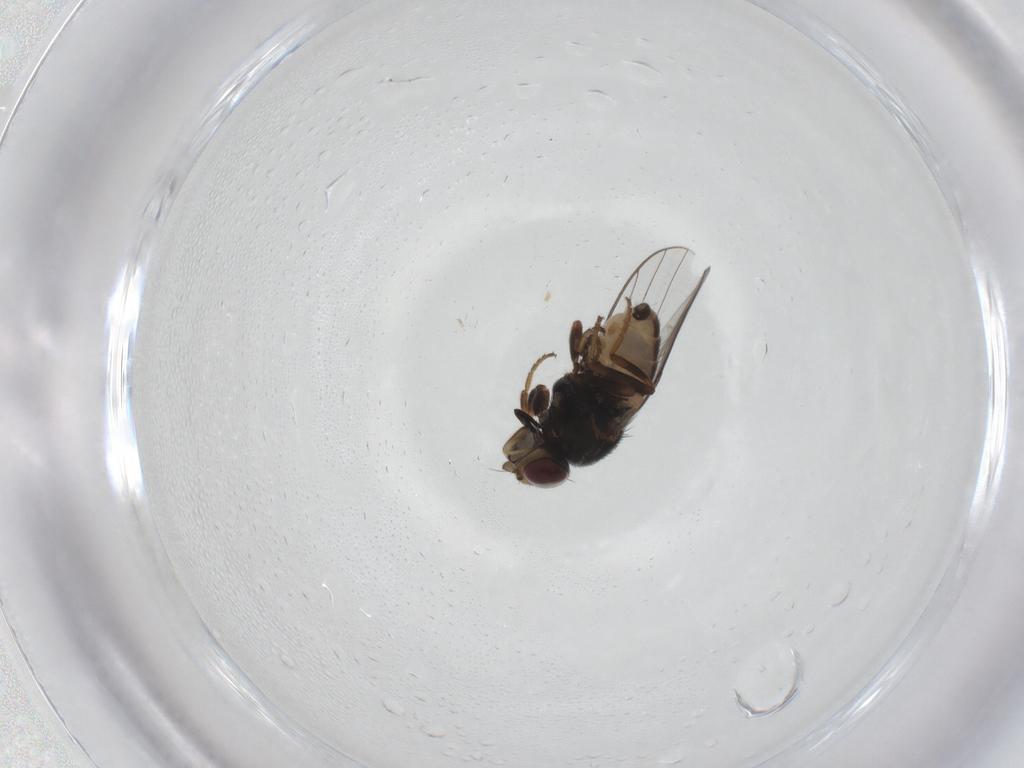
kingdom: Animalia
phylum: Arthropoda
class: Insecta
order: Diptera
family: Chloropidae
